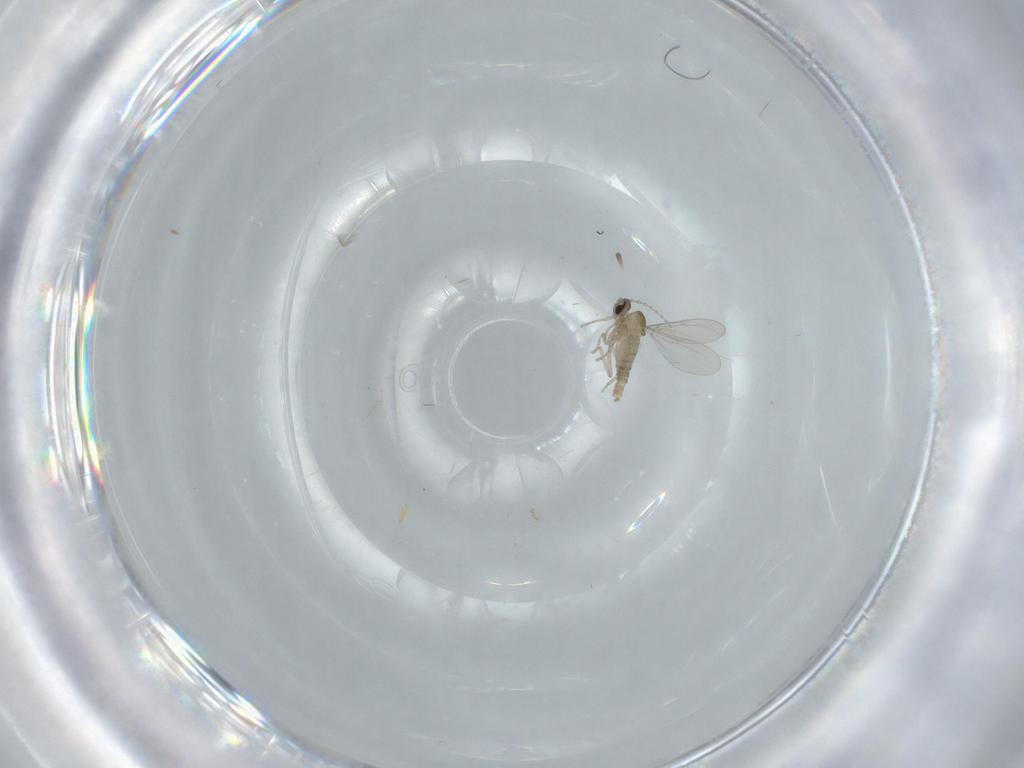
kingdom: Animalia
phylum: Arthropoda
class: Insecta
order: Diptera
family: Cecidomyiidae
